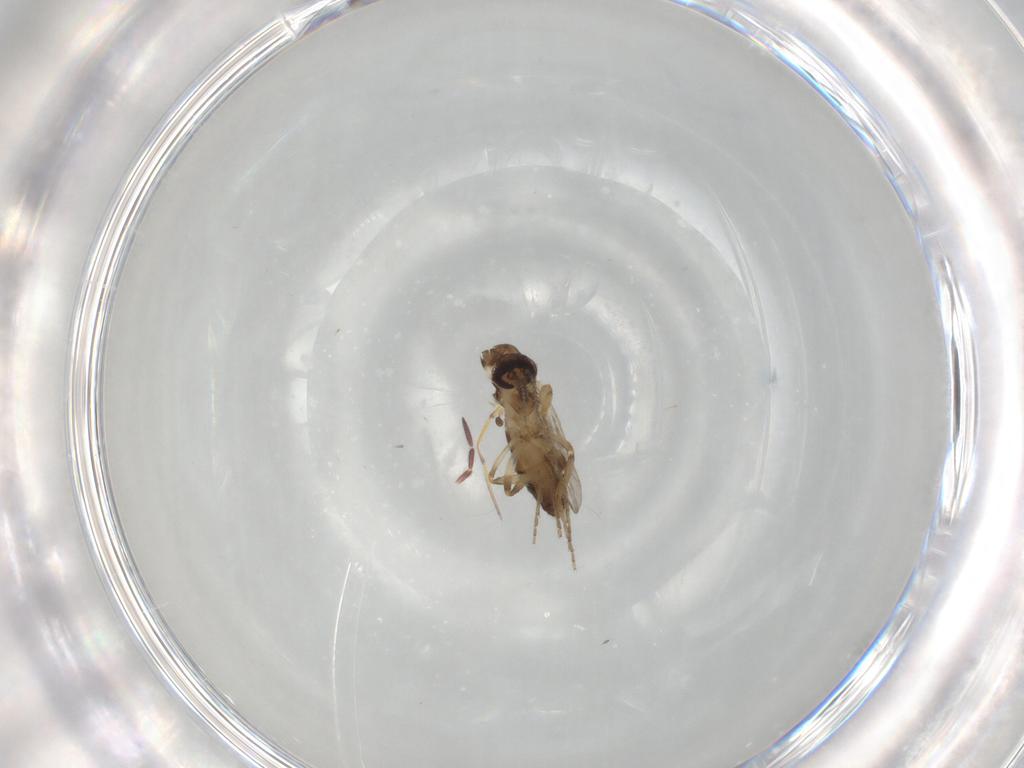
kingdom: Animalia
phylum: Arthropoda
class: Insecta
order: Diptera
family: Ceratopogonidae
